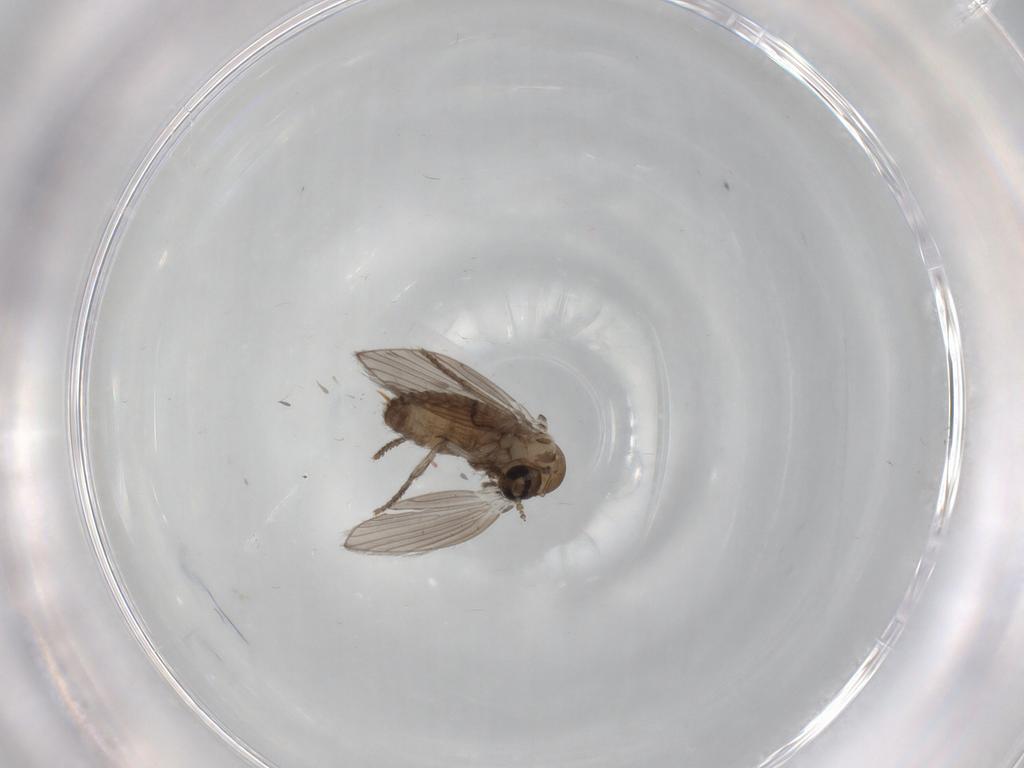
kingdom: Animalia
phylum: Arthropoda
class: Insecta
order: Diptera
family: Psychodidae
